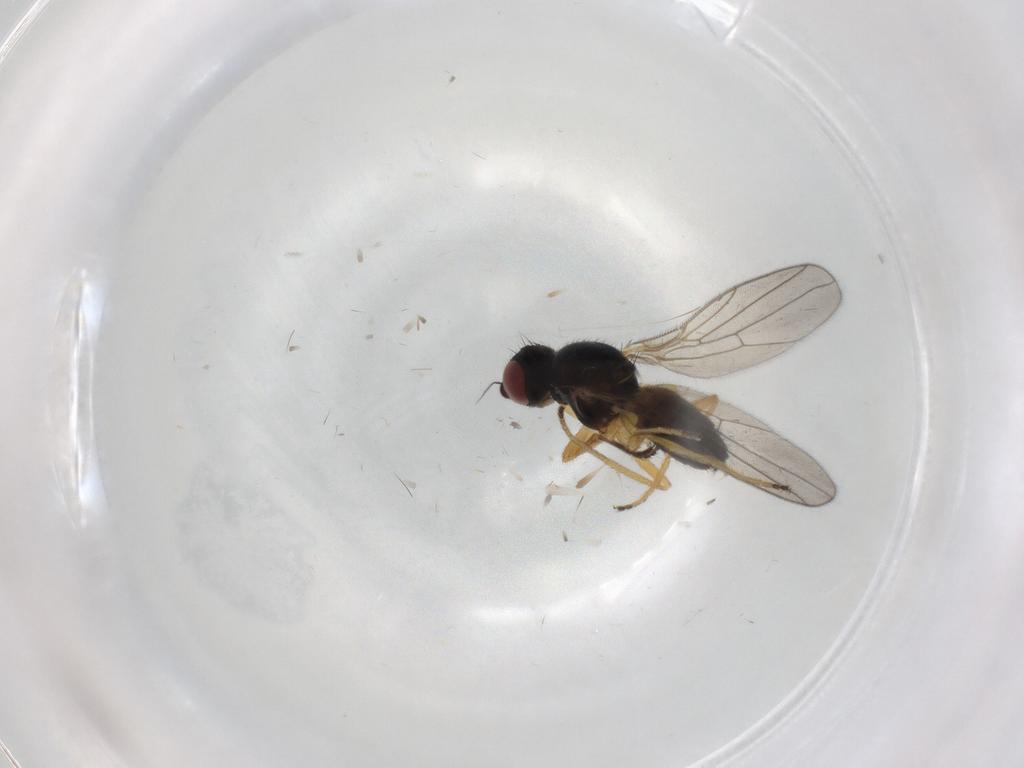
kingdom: Animalia
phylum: Arthropoda
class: Insecta
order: Diptera
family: Chloropidae
